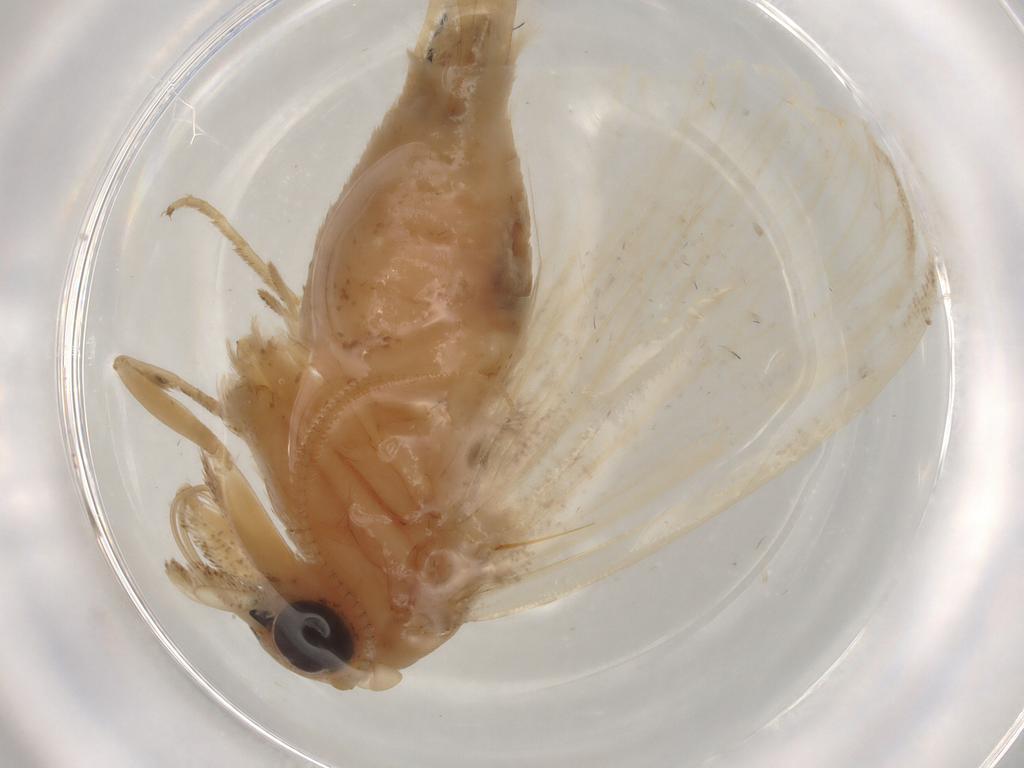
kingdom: Animalia
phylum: Arthropoda
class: Insecta
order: Lepidoptera
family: Nolidae
